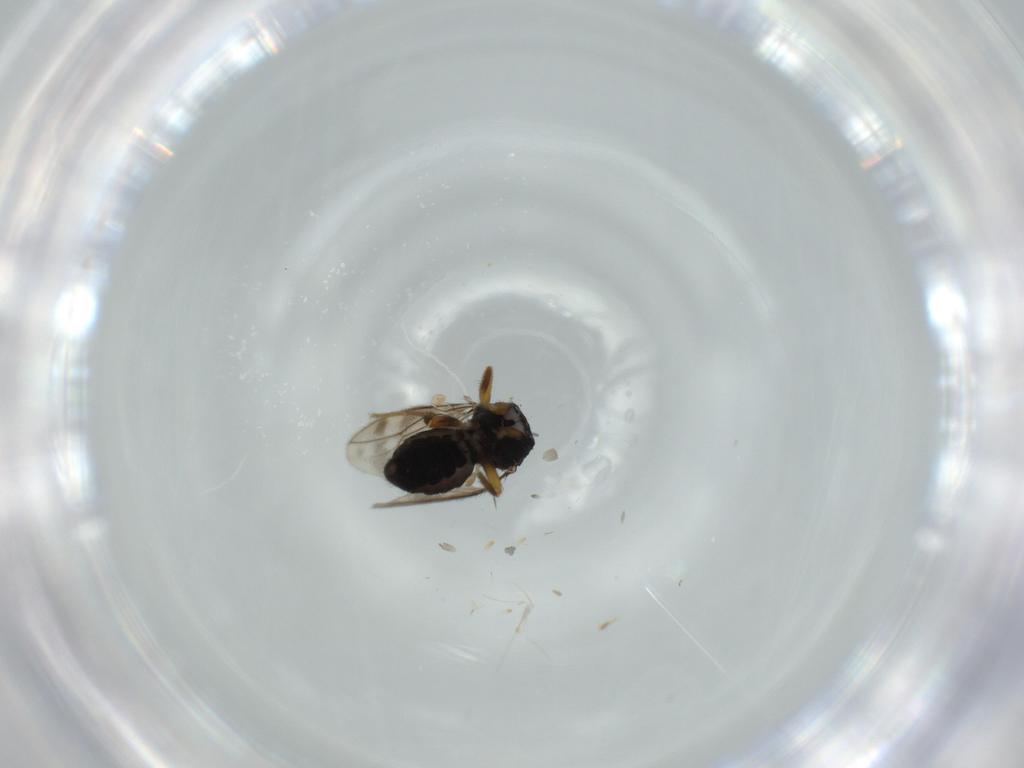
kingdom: Animalia
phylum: Arthropoda
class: Insecta
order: Diptera
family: Sphaeroceridae
